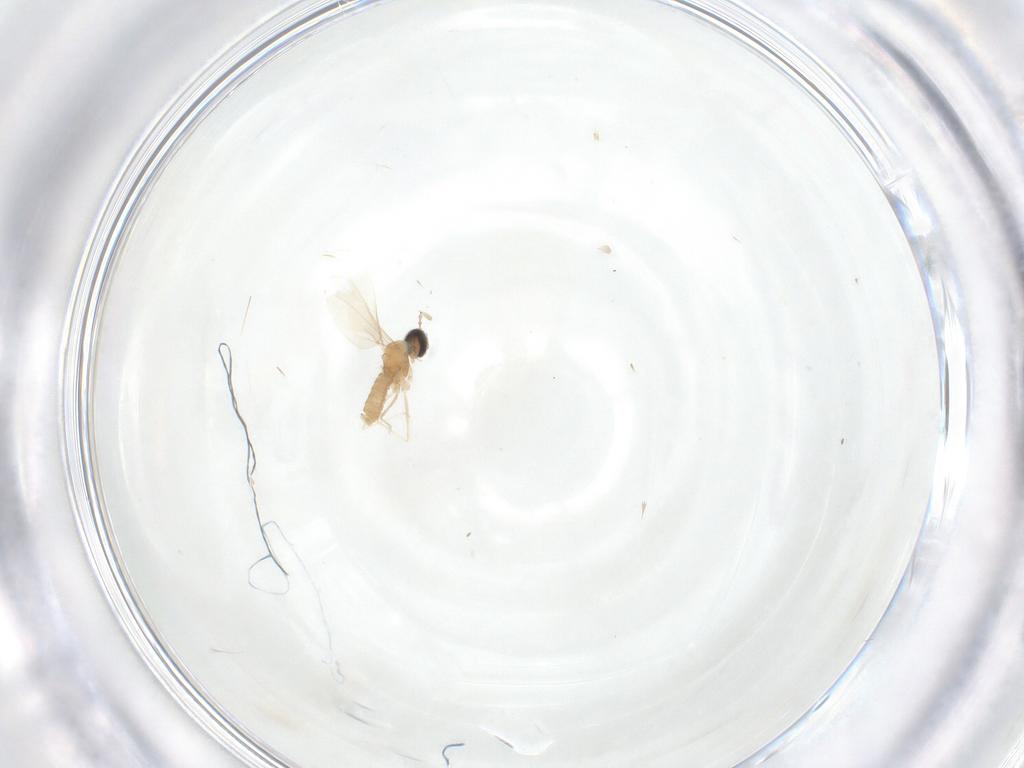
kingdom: Animalia
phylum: Arthropoda
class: Insecta
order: Diptera
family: Cecidomyiidae
